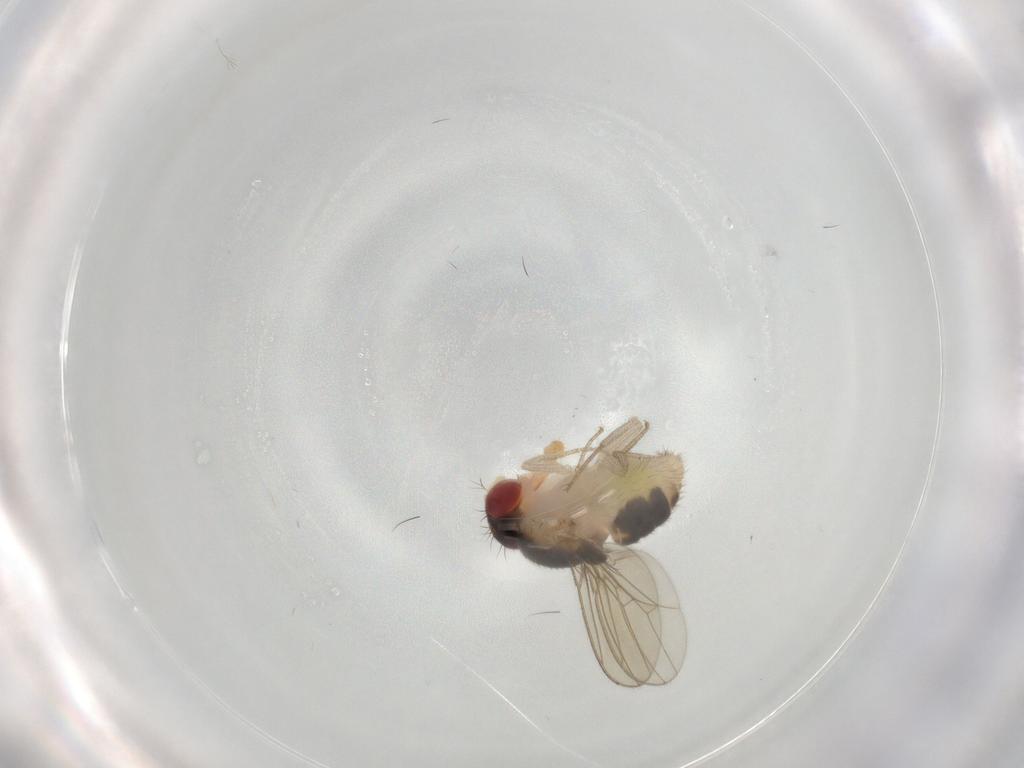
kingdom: Animalia
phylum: Arthropoda
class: Insecta
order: Diptera
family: Drosophilidae
